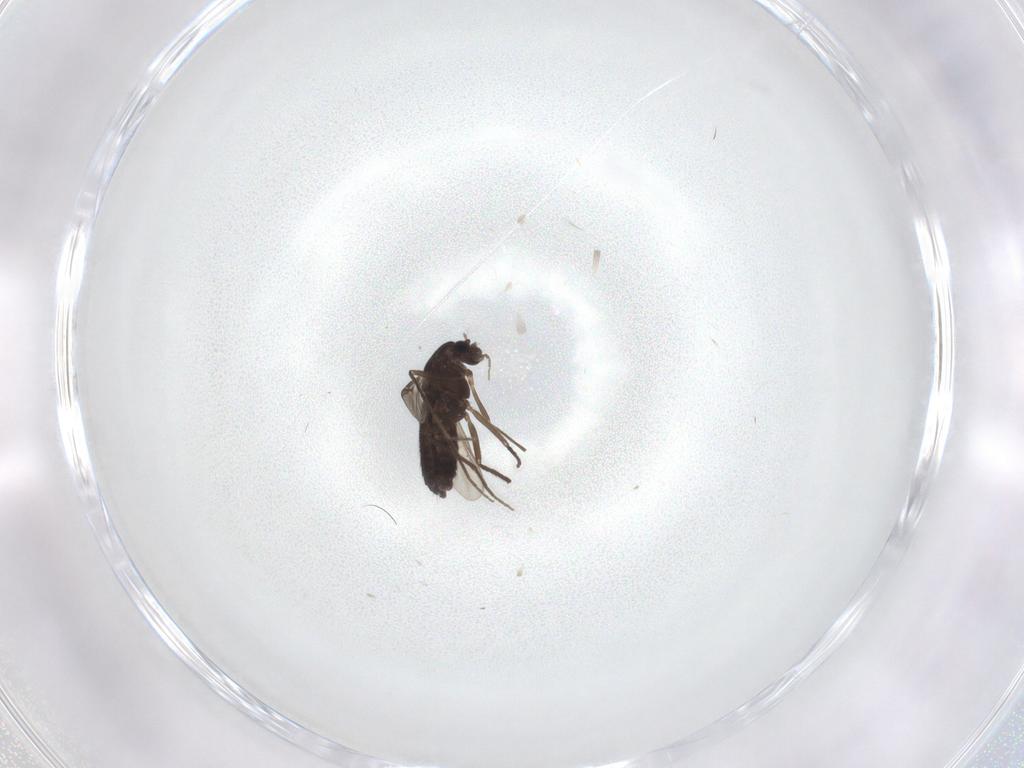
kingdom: Animalia
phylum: Arthropoda
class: Insecta
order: Diptera
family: Chironomidae
